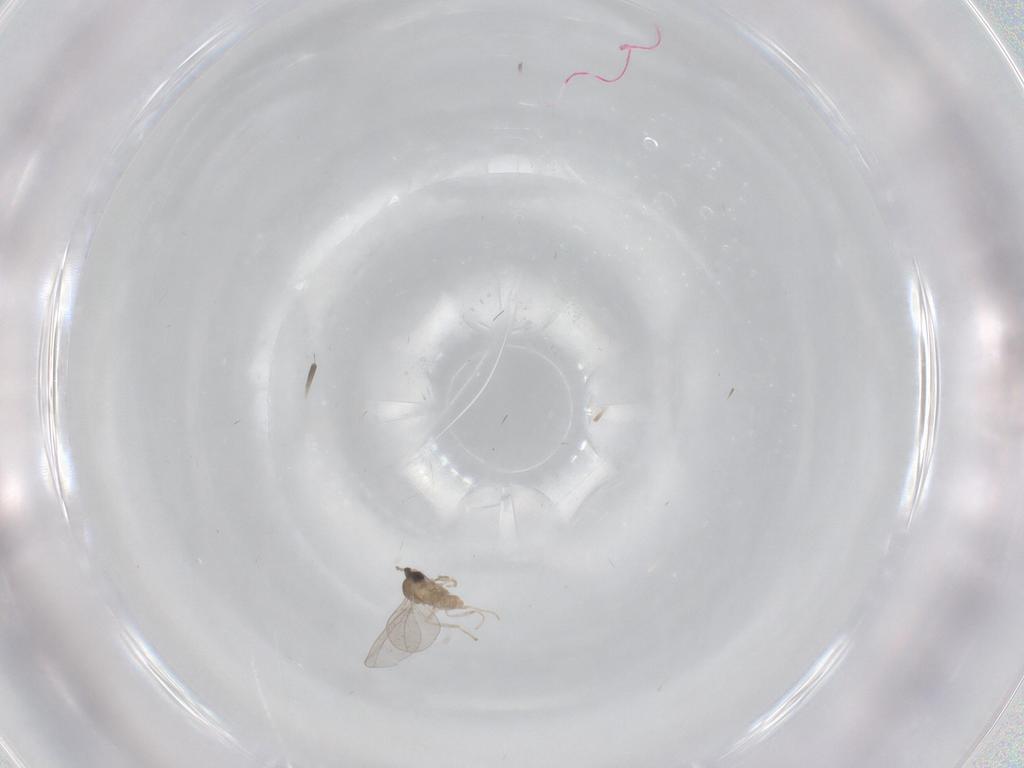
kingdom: Animalia
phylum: Arthropoda
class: Insecta
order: Diptera
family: Cecidomyiidae
